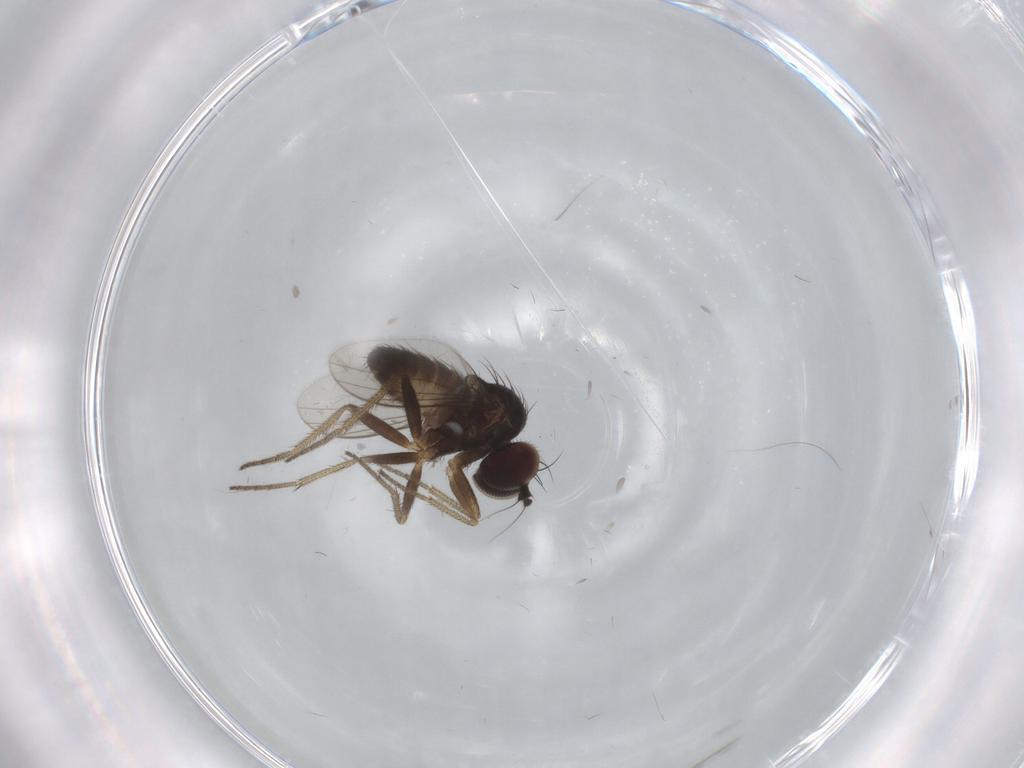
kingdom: Animalia
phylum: Arthropoda
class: Insecta
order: Diptera
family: Dolichopodidae
